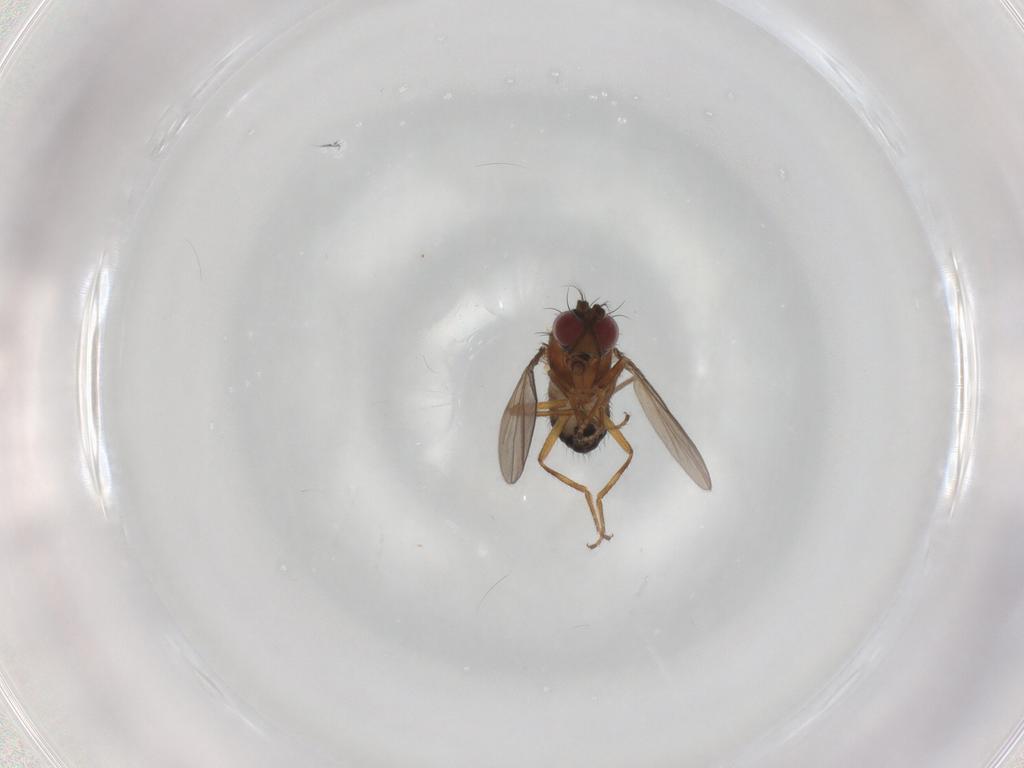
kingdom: Animalia
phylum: Arthropoda
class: Insecta
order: Diptera
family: Ephydridae
